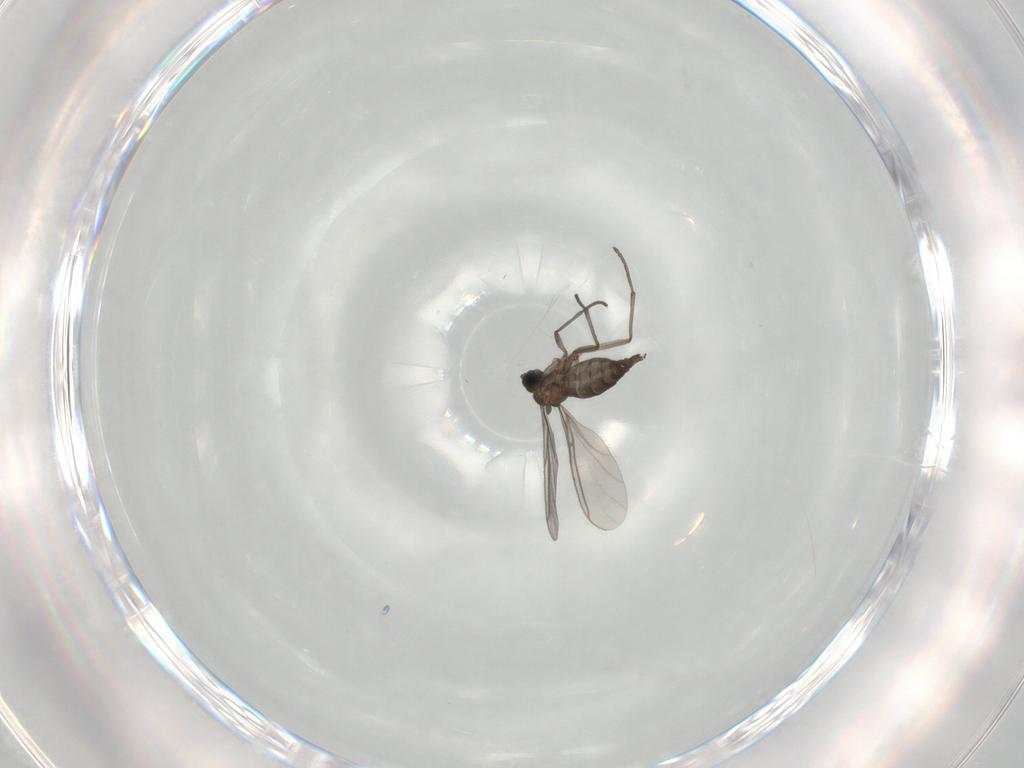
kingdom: Animalia
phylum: Arthropoda
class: Insecta
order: Diptera
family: Sciaridae
